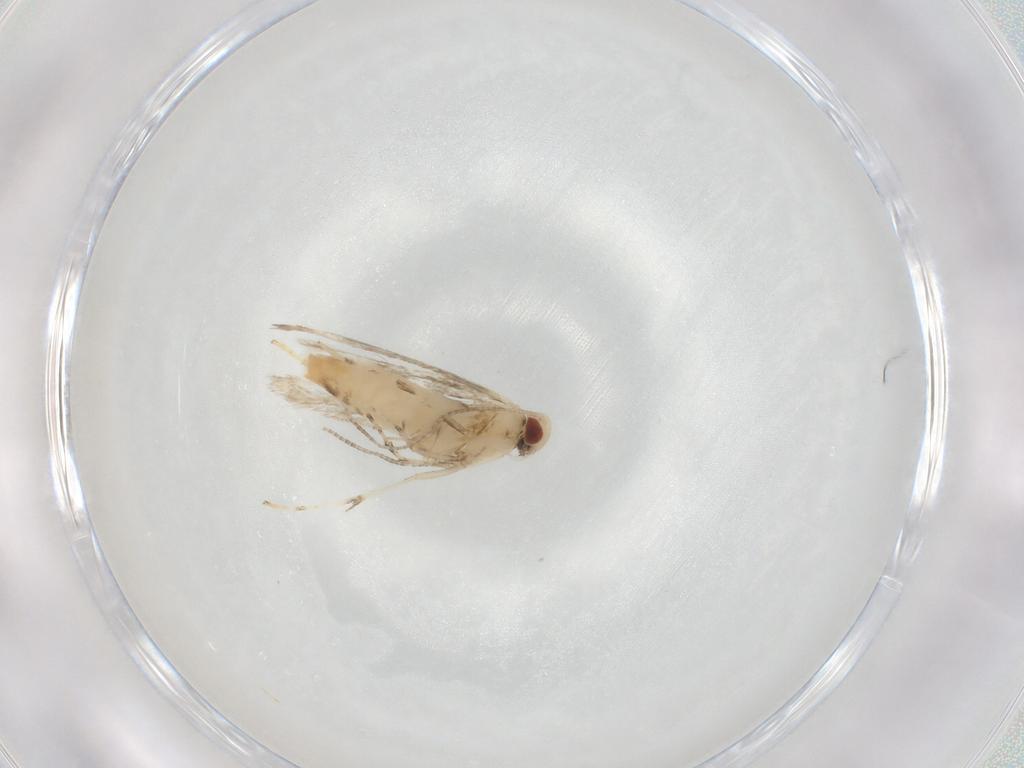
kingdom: Animalia
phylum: Arthropoda
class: Insecta
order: Lepidoptera
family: Gracillariidae
